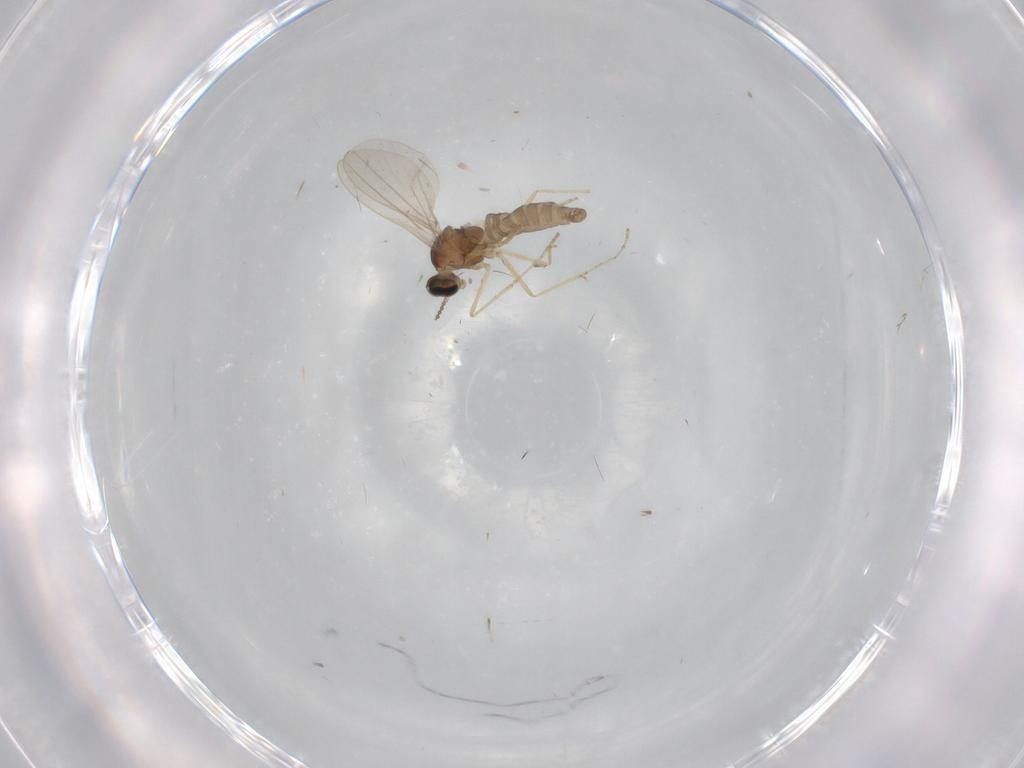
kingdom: Animalia
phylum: Arthropoda
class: Insecta
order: Diptera
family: Cecidomyiidae
